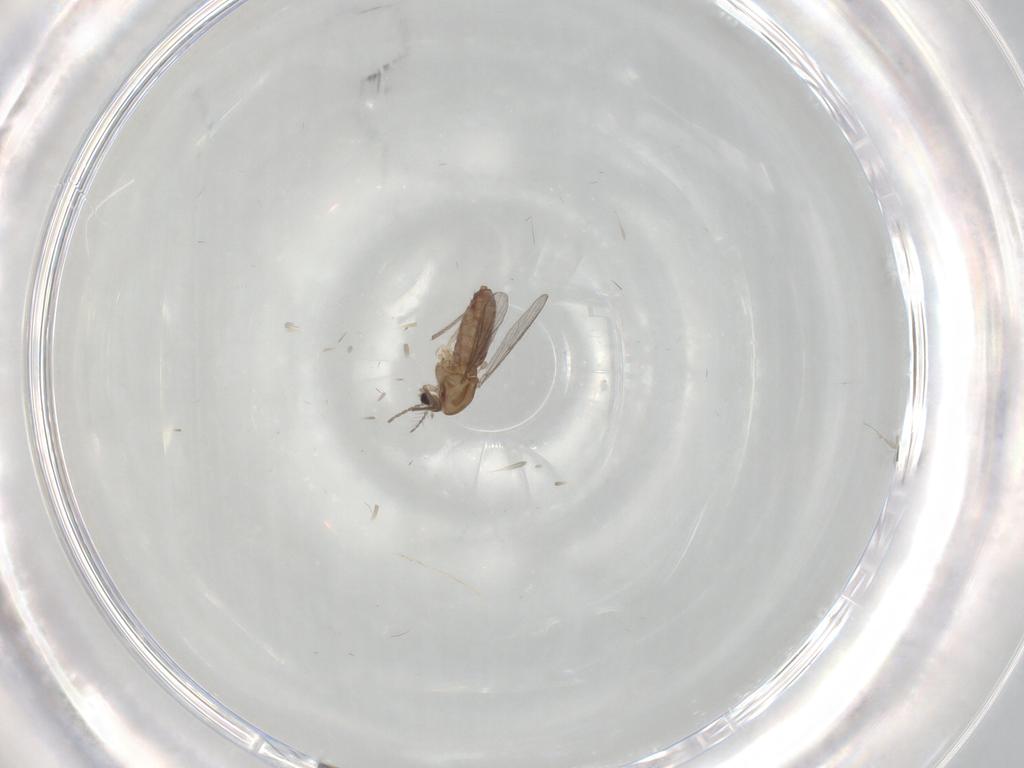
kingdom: Animalia
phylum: Arthropoda
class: Insecta
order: Diptera
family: Chironomidae
